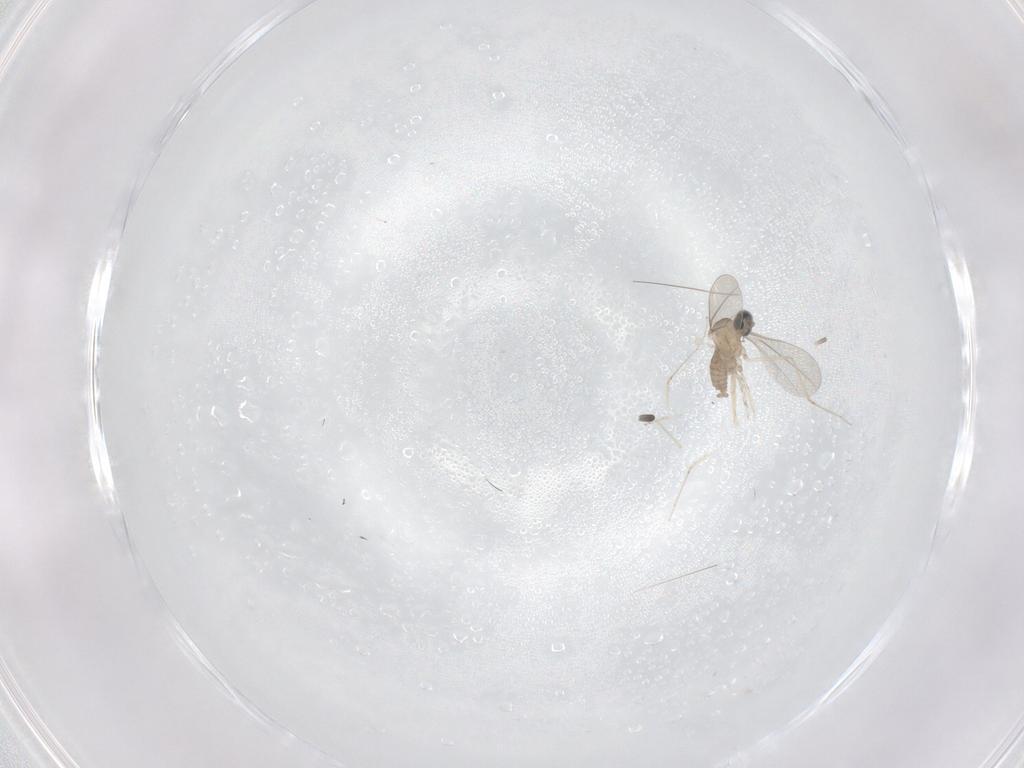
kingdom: Animalia
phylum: Arthropoda
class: Insecta
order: Diptera
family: Cecidomyiidae
